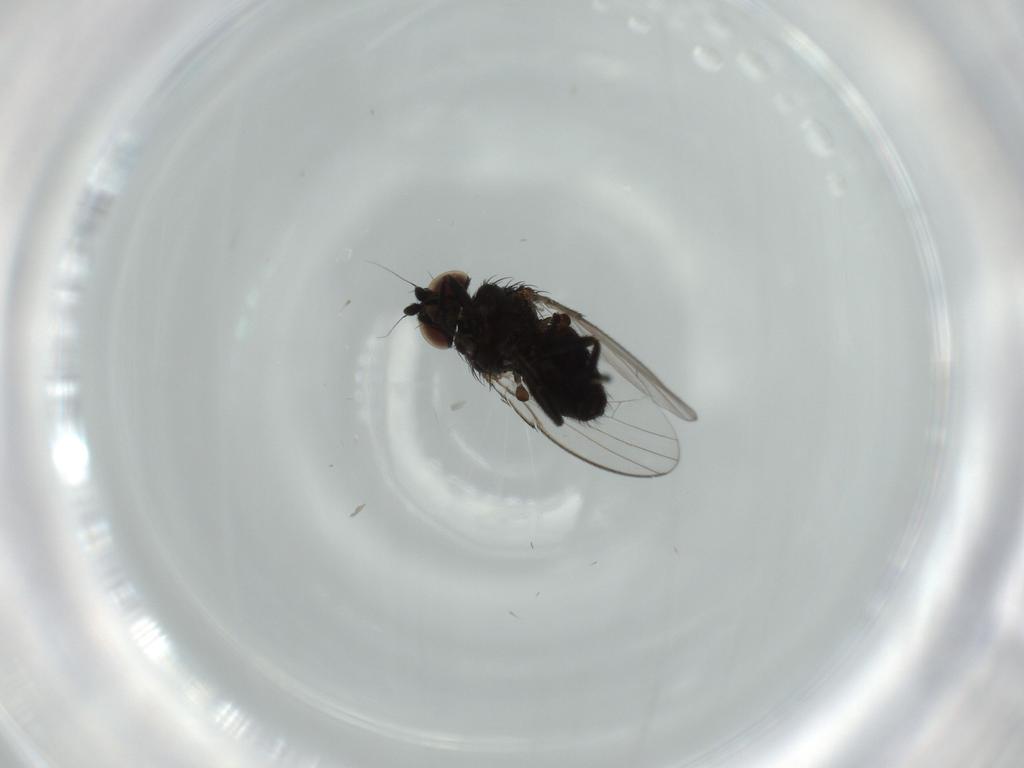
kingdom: Animalia
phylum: Arthropoda
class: Insecta
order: Diptera
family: Milichiidae
